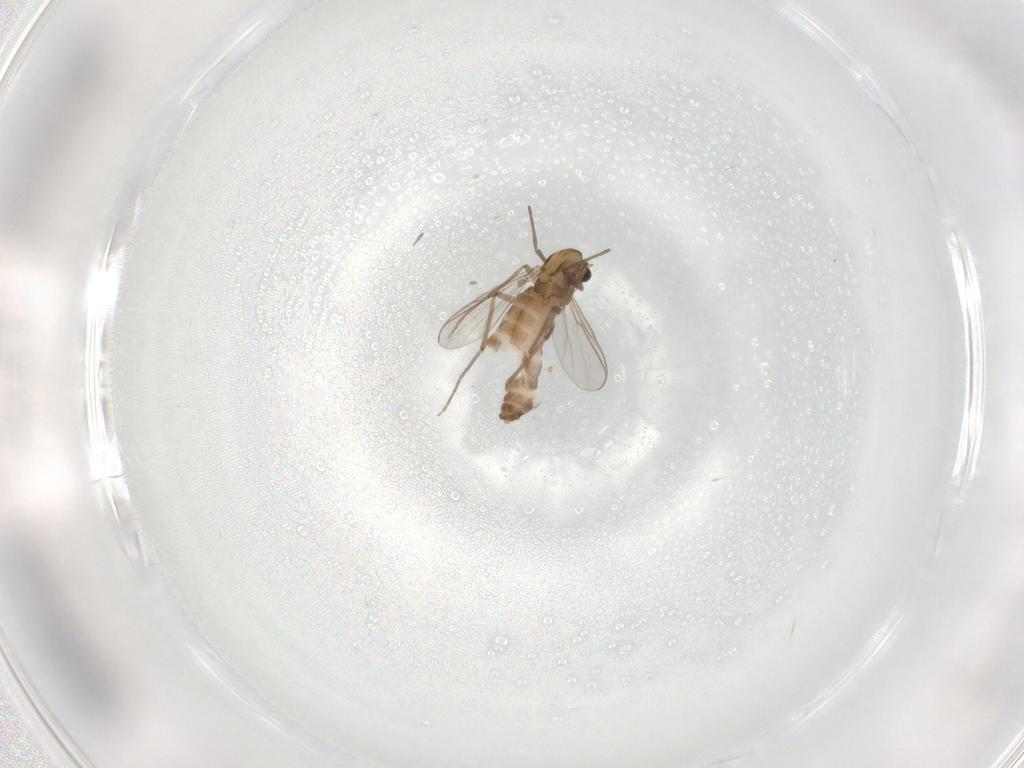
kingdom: Animalia
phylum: Arthropoda
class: Insecta
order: Diptera
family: Chironomidae
